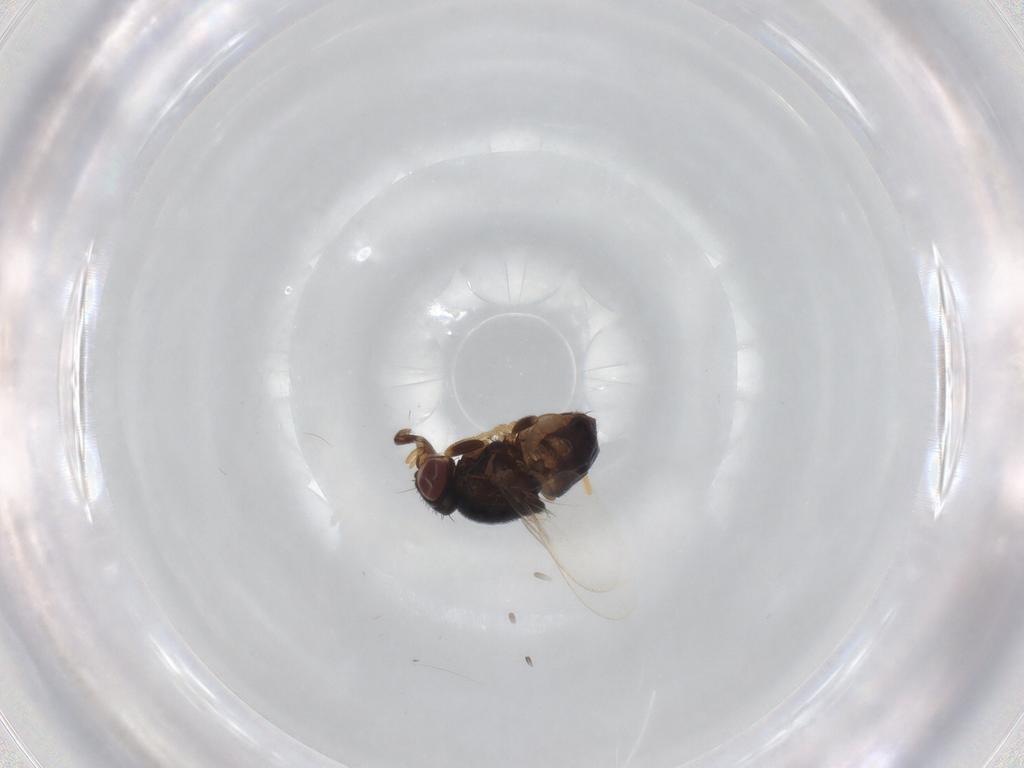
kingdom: Animalia
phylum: Arthropoda
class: Insecta
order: Diptera
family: Chloropidae
